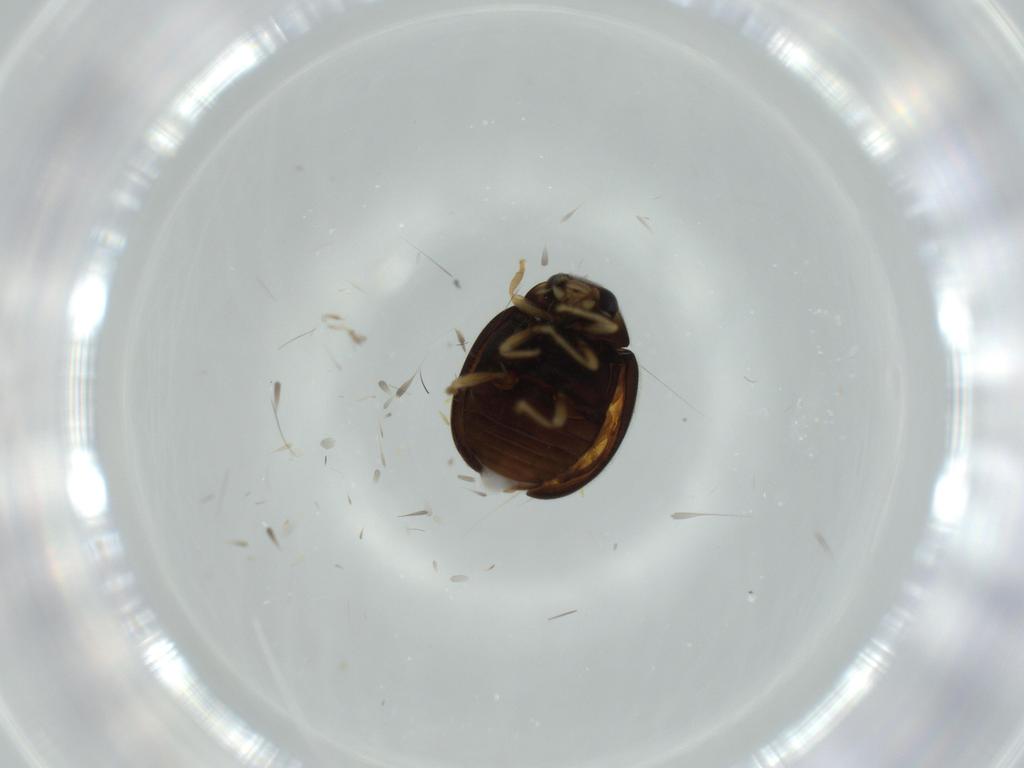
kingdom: Animalia
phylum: Arthropoda
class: Insecta
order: Coleoptera
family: Coccinellidae
